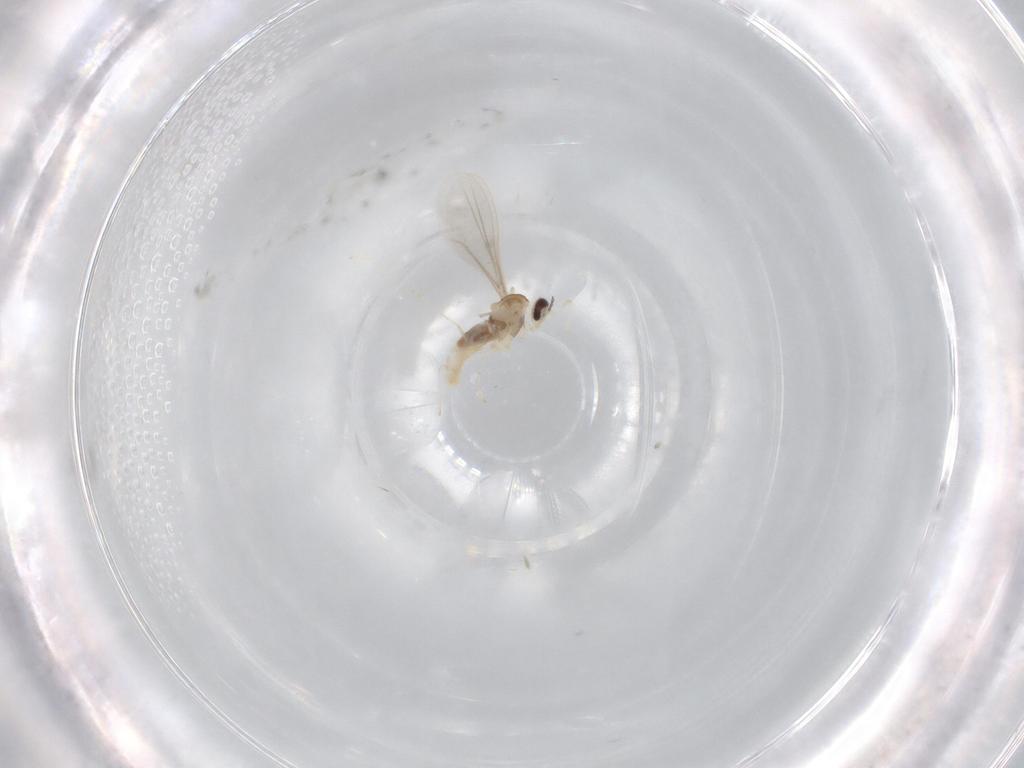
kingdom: Animalia
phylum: Arthropoda
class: Insecta
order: Diptera
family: Cecidomyiidae
